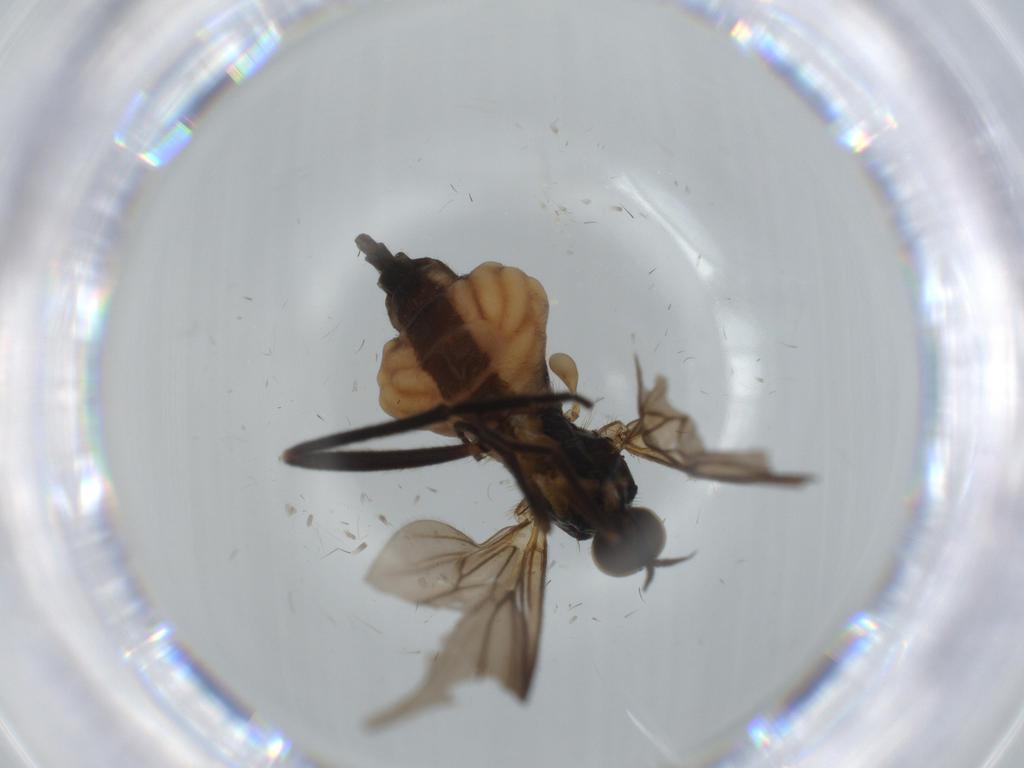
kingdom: Animalia
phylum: Arthropoda
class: Insecta
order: Diptera
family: Empididae
